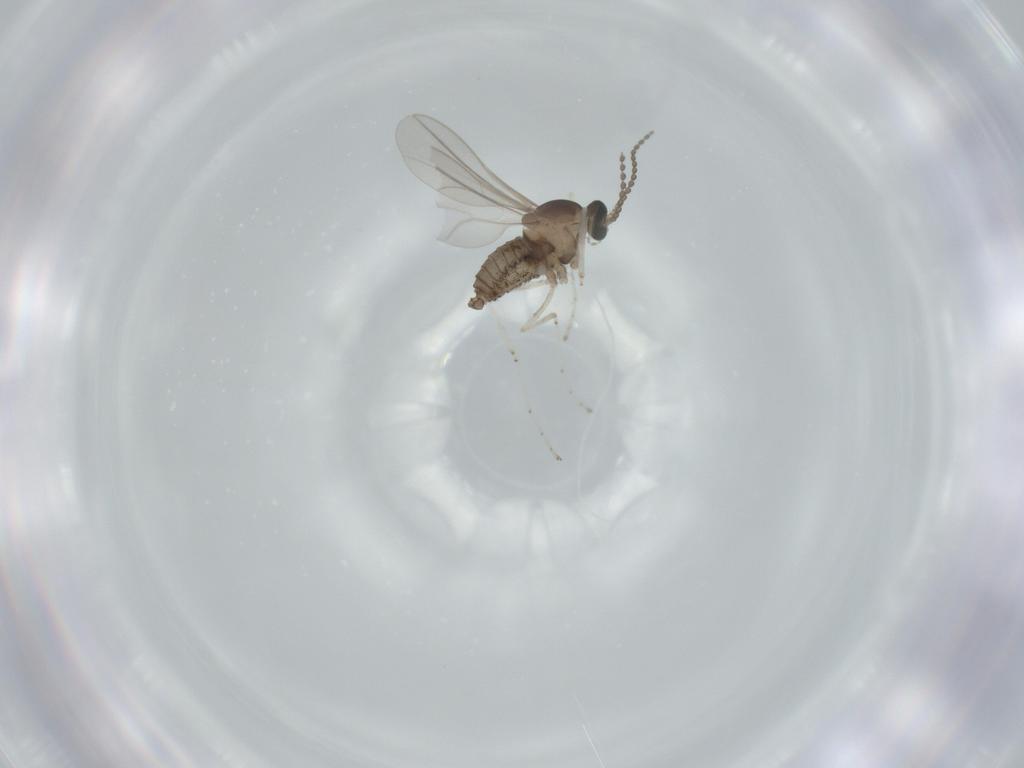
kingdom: Animalia
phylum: Arthropoda
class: Insecta
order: Diptera
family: Cecidomyiidae
